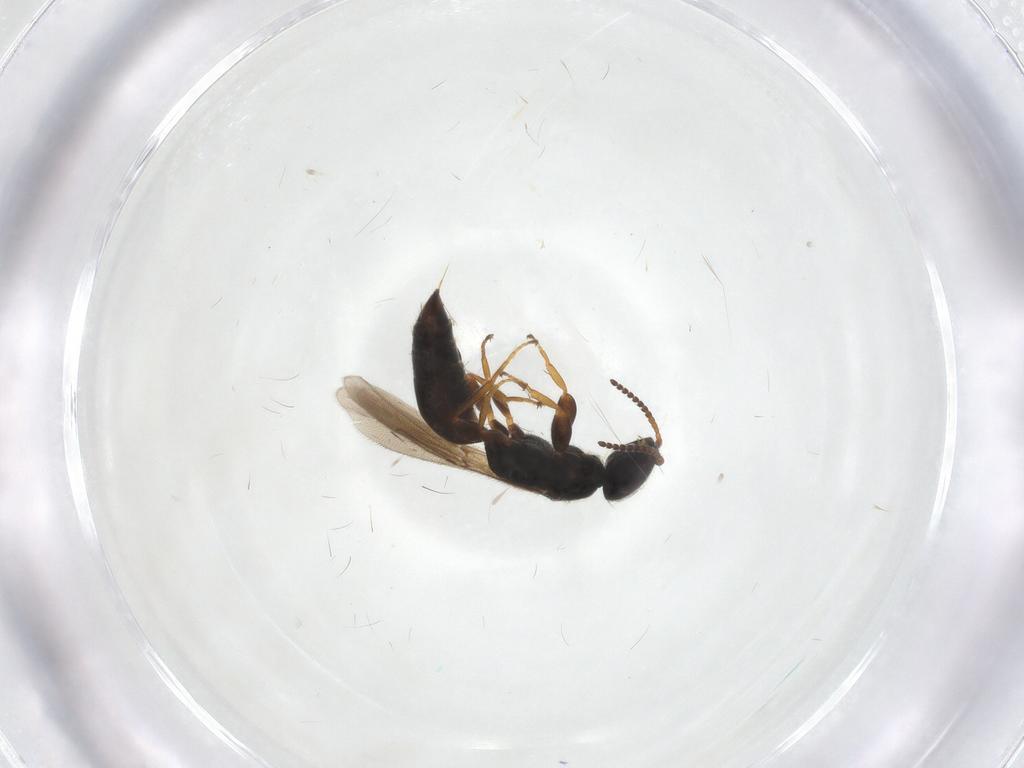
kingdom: Animalia
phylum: Arthropoda
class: Insecta
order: Hymenoptera
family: Bethylidae
